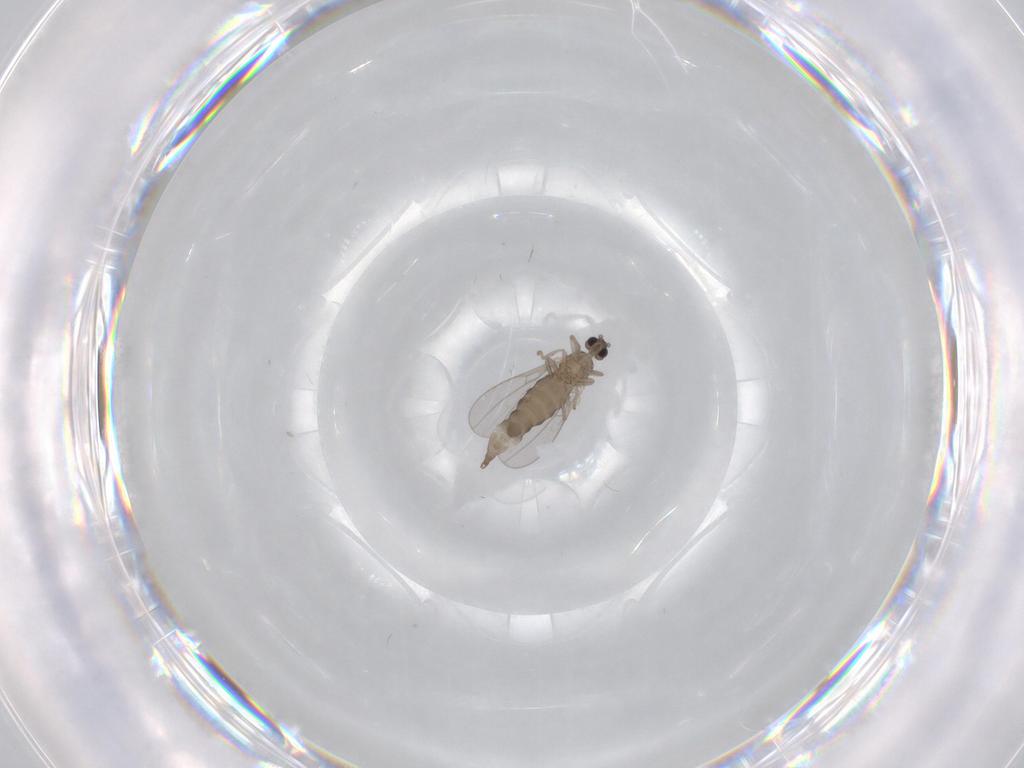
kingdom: Animalia
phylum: Arthropoda
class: Insecta
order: Diptera
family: Cecidomyiidae
